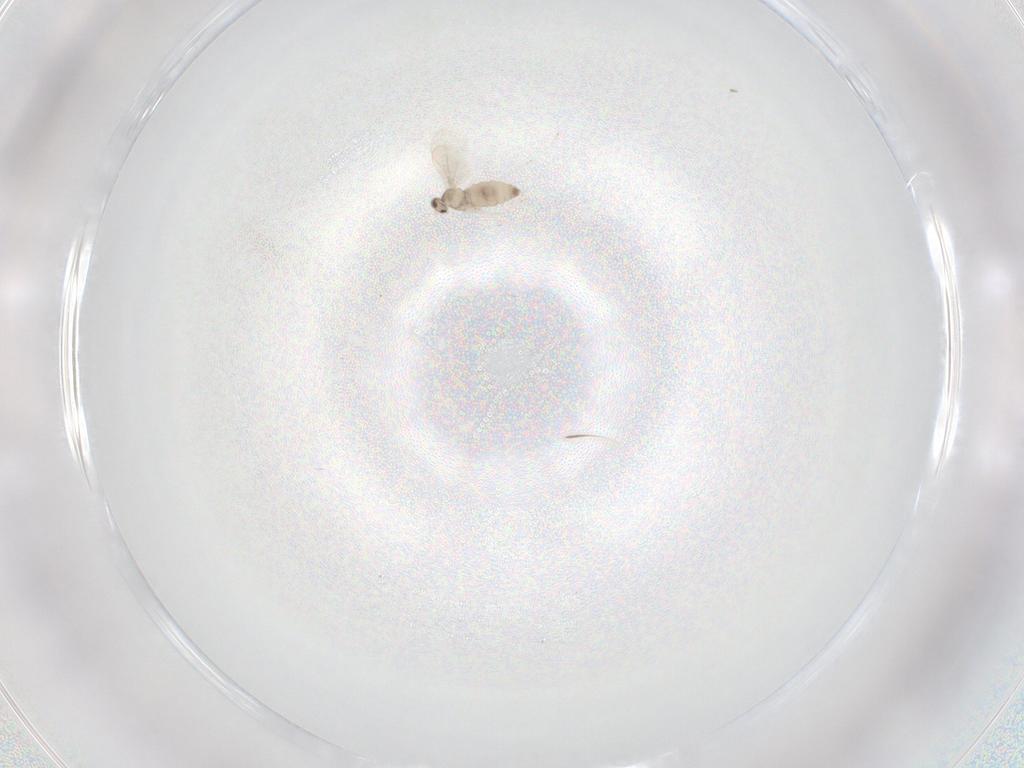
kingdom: Animalia
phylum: Arthropoda
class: Insecta
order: Diptera
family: Cecidomyiidae
